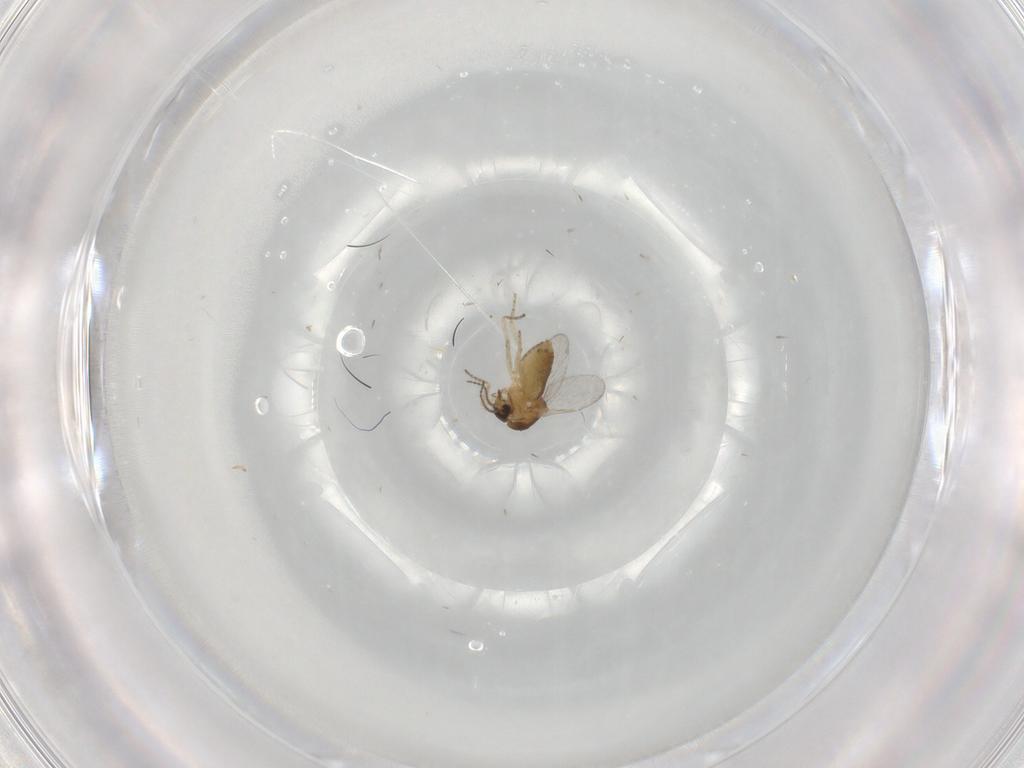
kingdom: Animalia
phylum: Arthropoda
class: Insecta
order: Diptera
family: Ceratopogonidae
